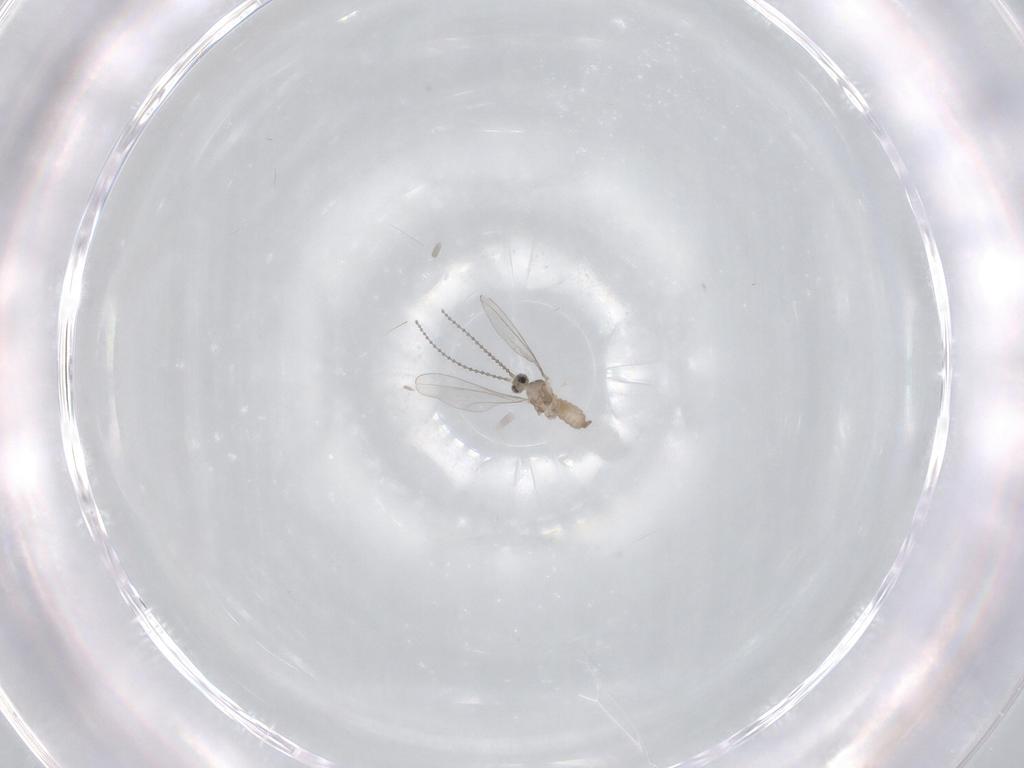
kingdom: Animalia
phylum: Arthropoda
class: Insecta
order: Diptera
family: Cecidomyiidae
